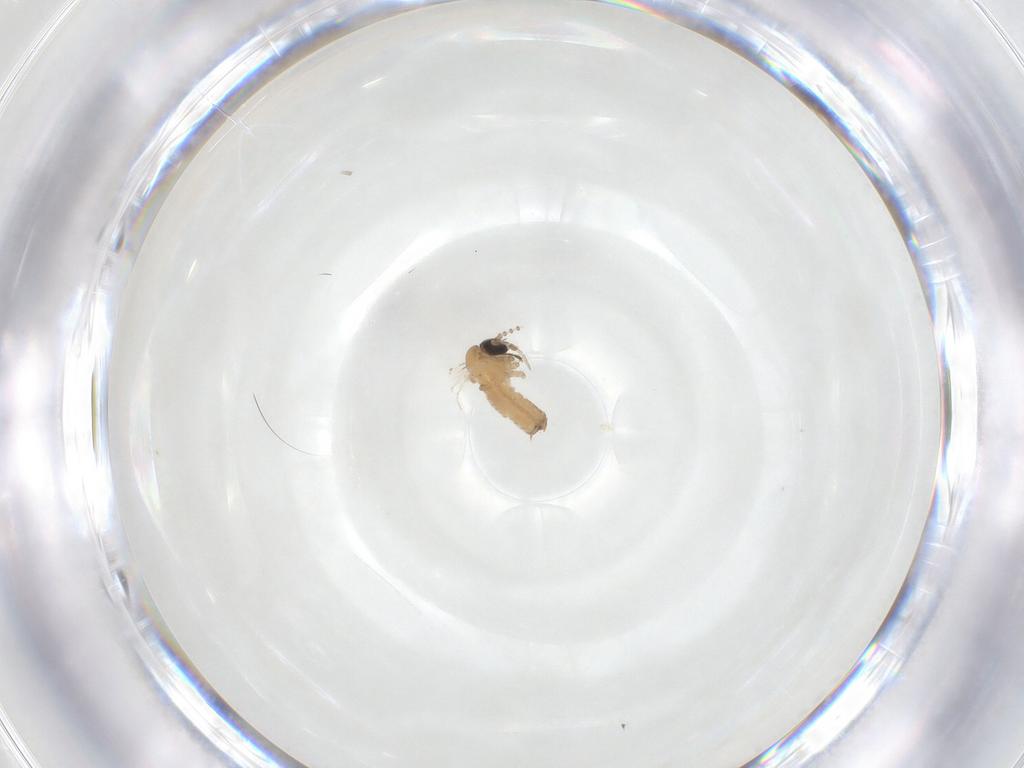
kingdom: Animalia
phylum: Arthropoda
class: Insecta
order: Diptera
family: Psychodidae
